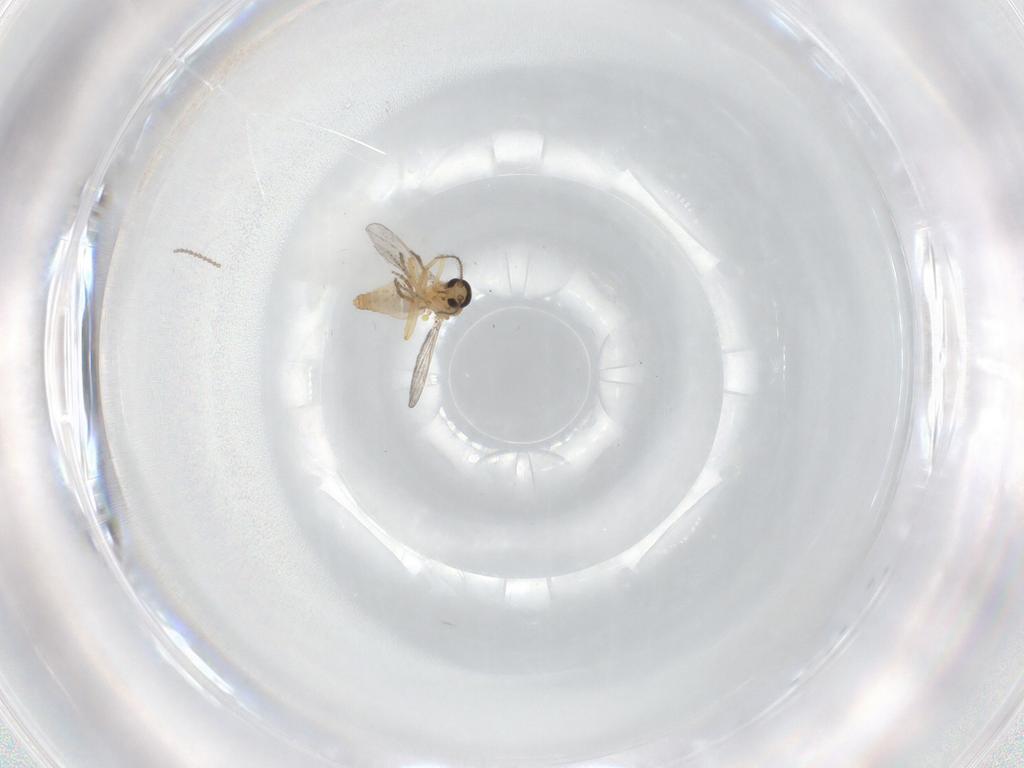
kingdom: Animalia
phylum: Arthropoda
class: Insecta
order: Diptera
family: Cecidomyiidae
